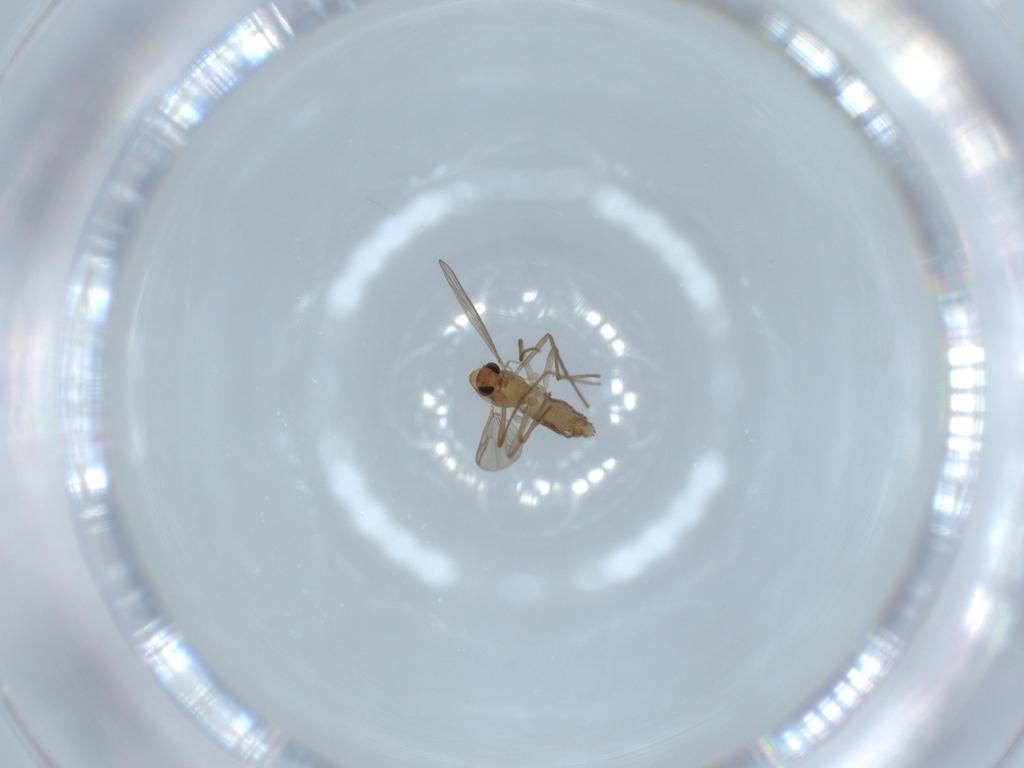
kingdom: Animalia
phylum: Arthropoda
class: Insecta
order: Diptera
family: Chironomidae
